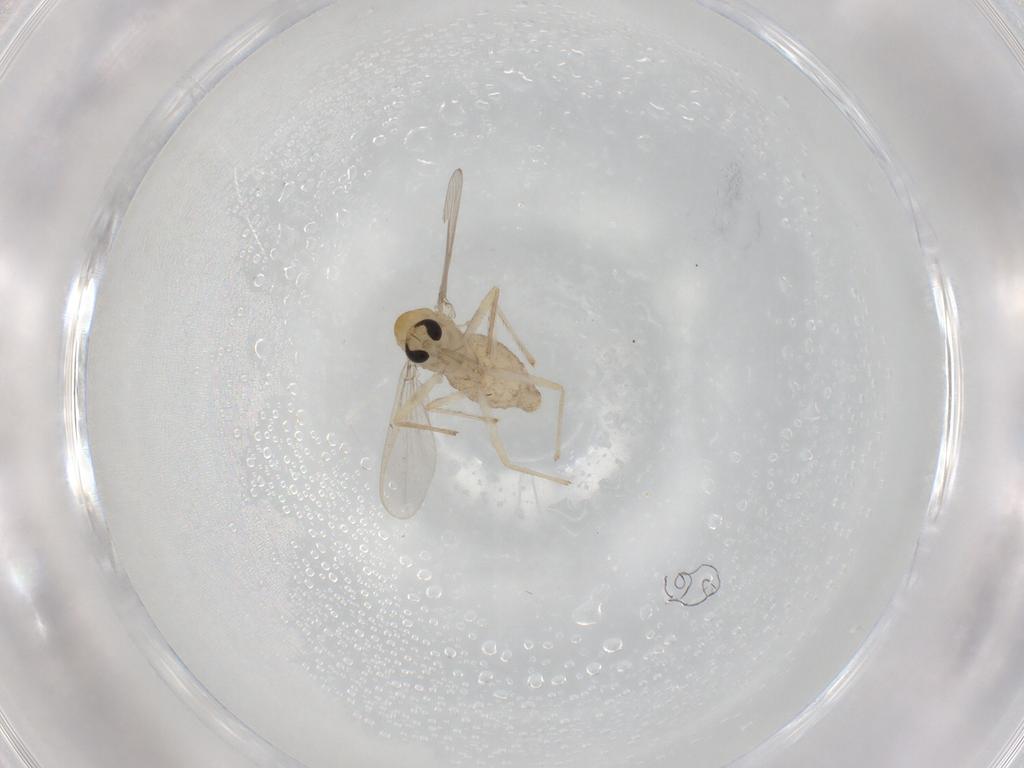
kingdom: Animalia
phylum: Arthropoda
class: Insecta
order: Diptera
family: Chironomidae
